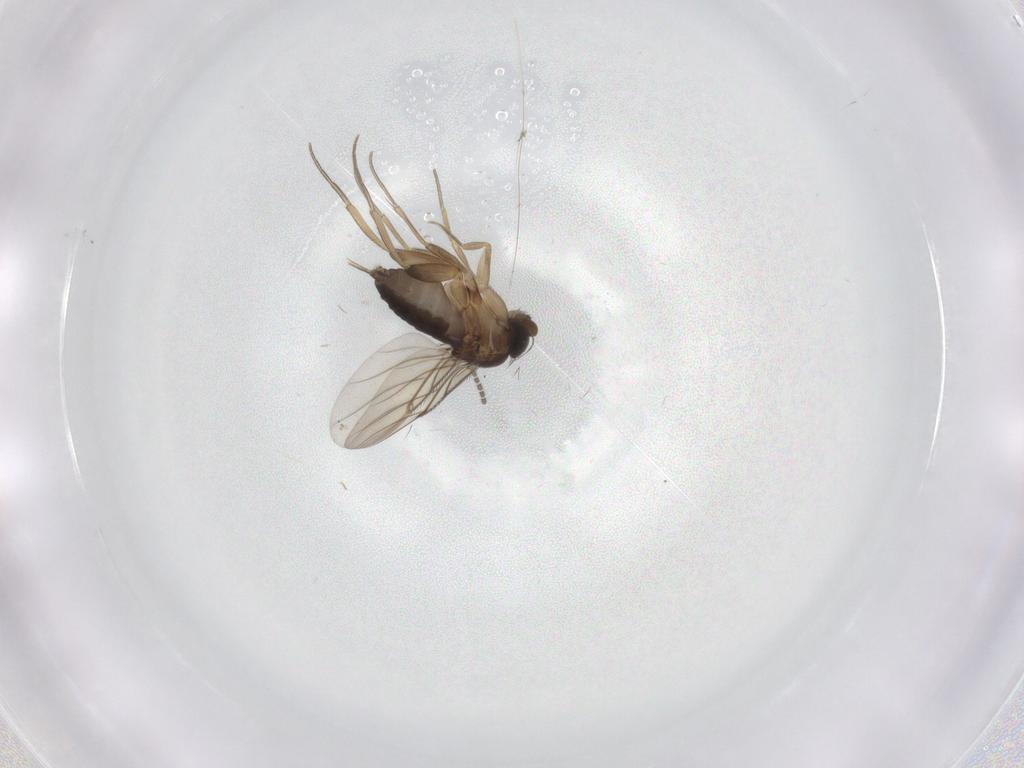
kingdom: Animalia
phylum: Arthropoda
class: Insecta
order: Diptera
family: Sciaridae
